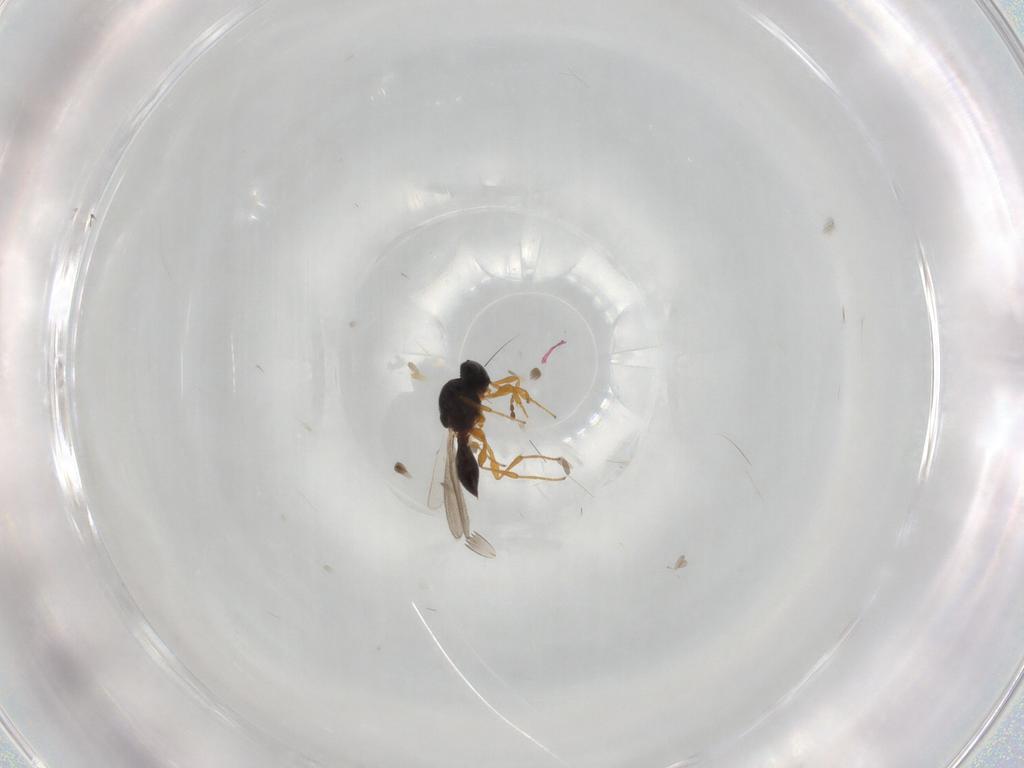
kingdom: Animalia
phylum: Arthropoda
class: Insecta
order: Hymenoptera
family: Platygastridae
